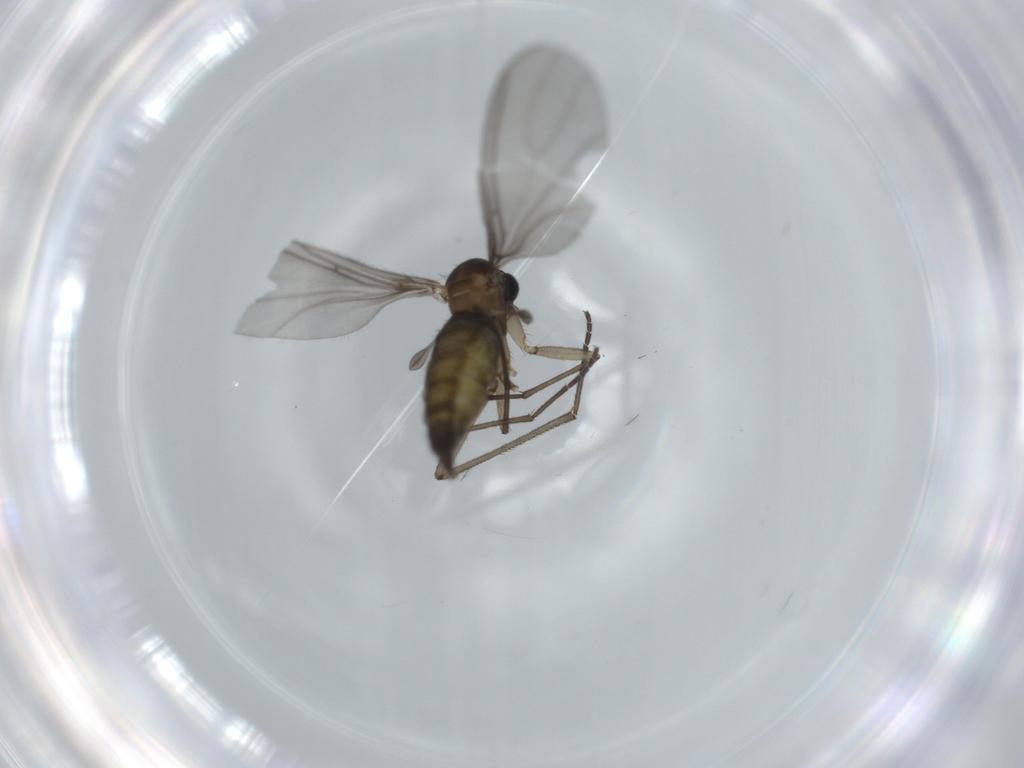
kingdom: Animalia
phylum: Arthropoda
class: Insecta
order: Diptera
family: Sciaridae
